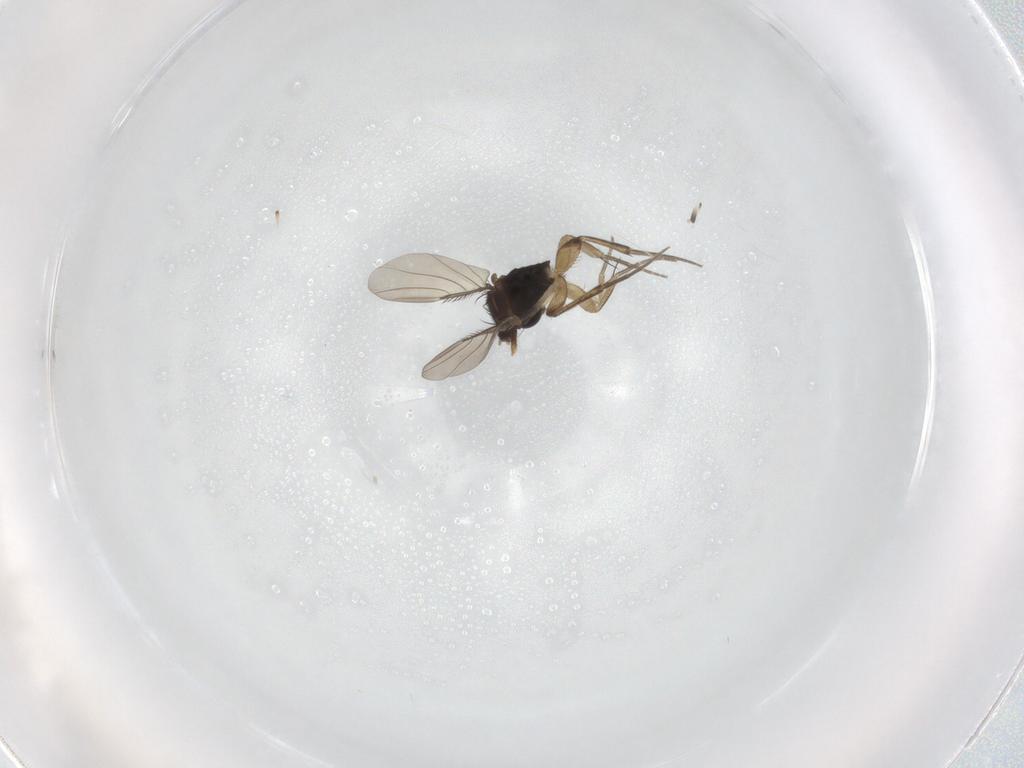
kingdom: Animalia
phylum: Arthropoda
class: Insecta
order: Diptera
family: Phoridae
